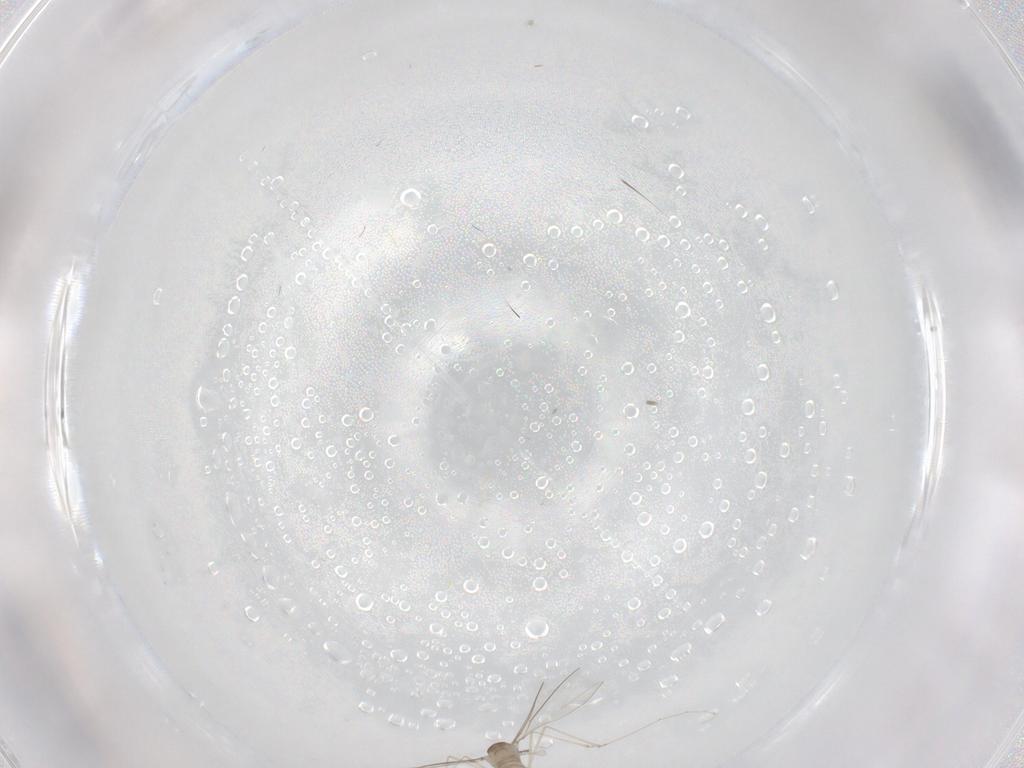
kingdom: Animalia
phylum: Arthropoda
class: Insecta
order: Diptera
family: Cecidomyiidae
